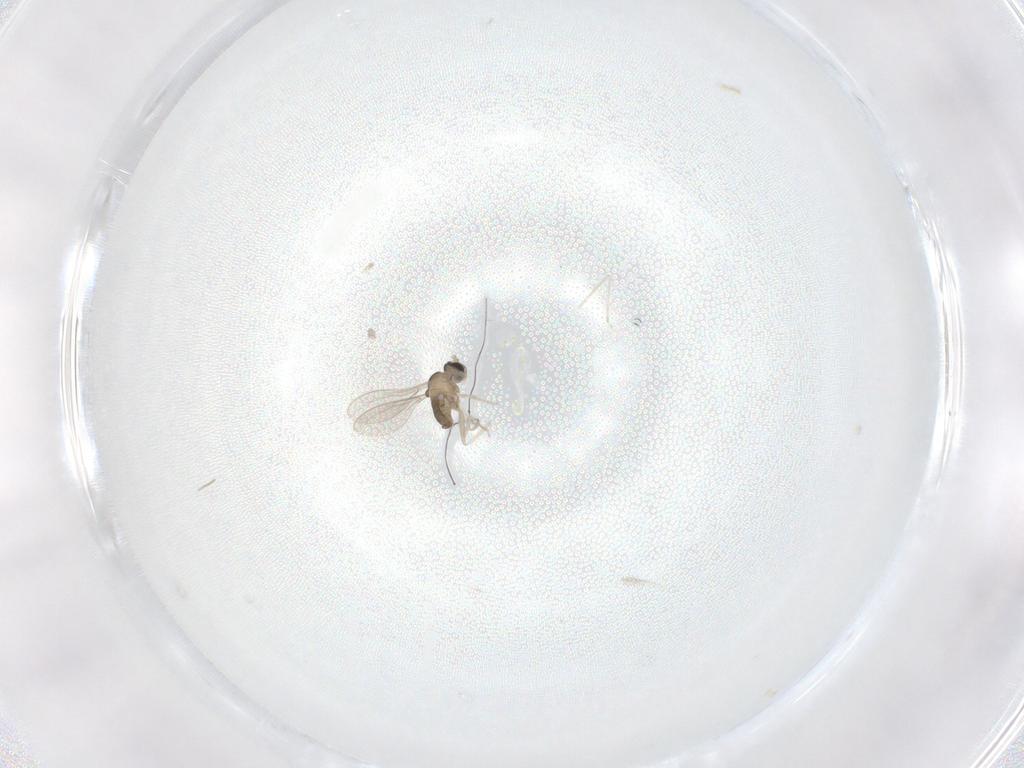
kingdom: Animalia
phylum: Arthropoda
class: Insecta
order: Diptera
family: Cecidomyiidae
